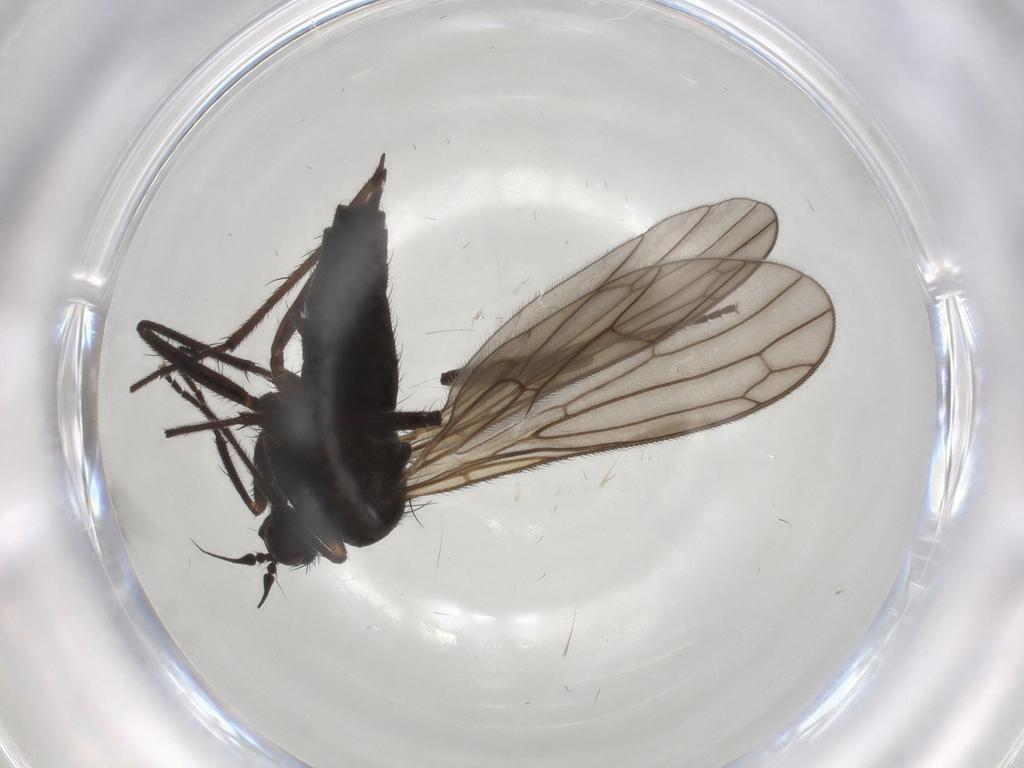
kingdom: Animalia
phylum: Arthropoda
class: Insecta
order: Diptera
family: Empididae
